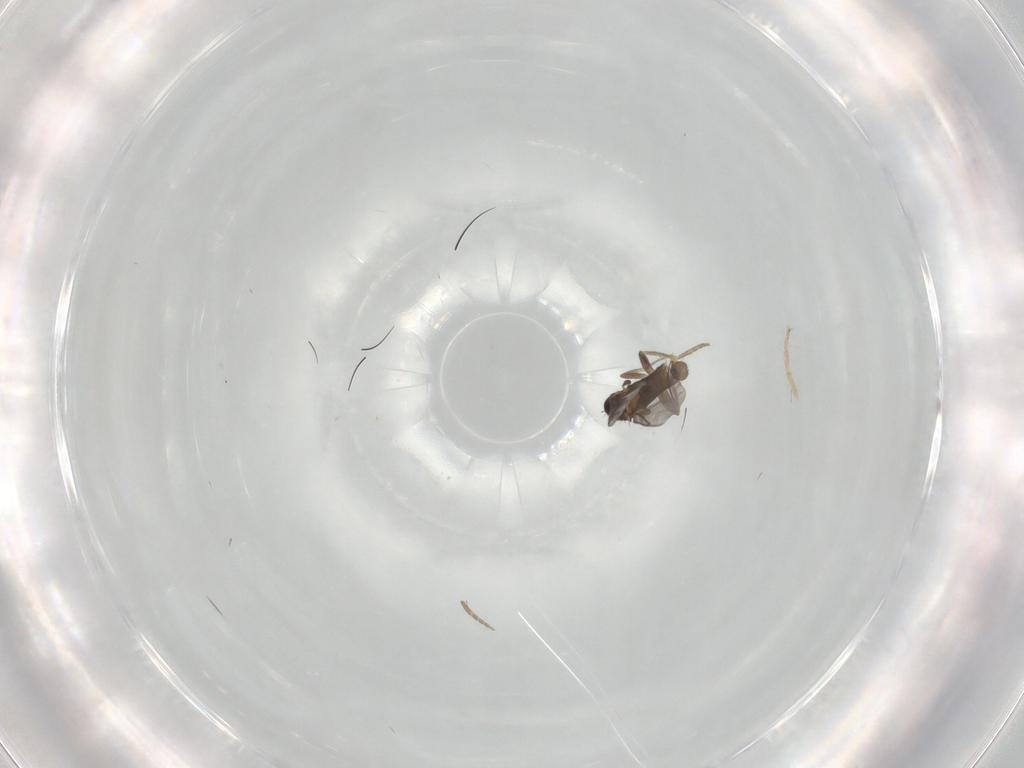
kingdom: Animalia
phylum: Arthropoda
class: Insecta
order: Diptera
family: Chironomidae
